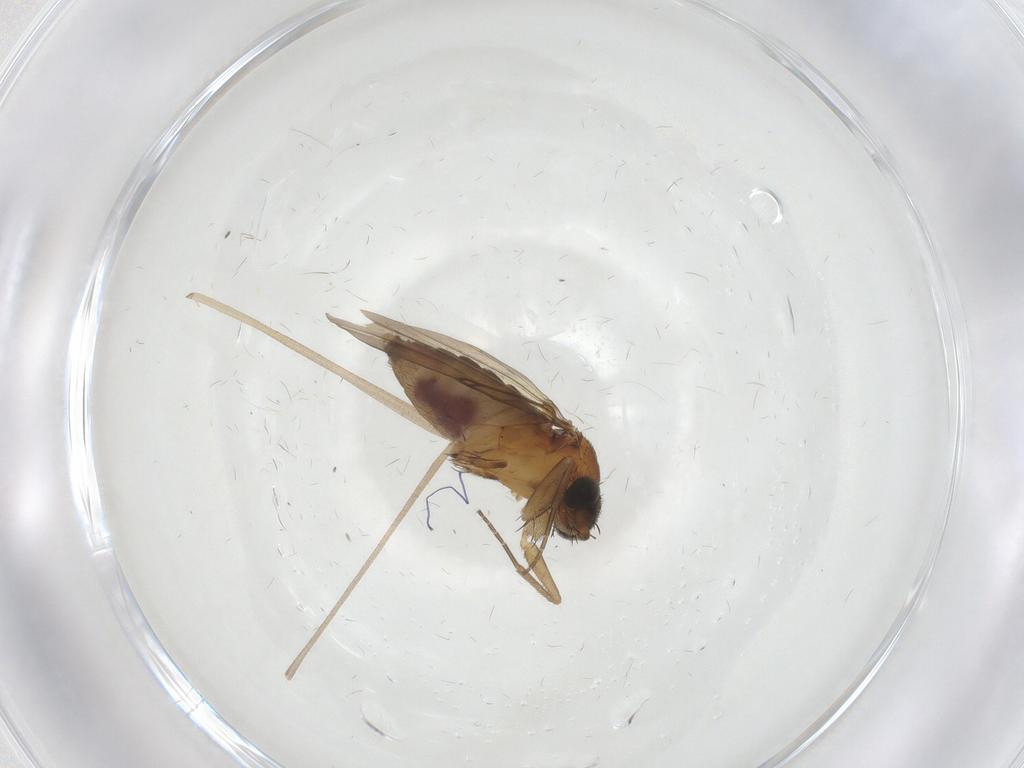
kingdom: Animalia
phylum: Arthropoda
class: Insecta
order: Diptera
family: Phoridae
